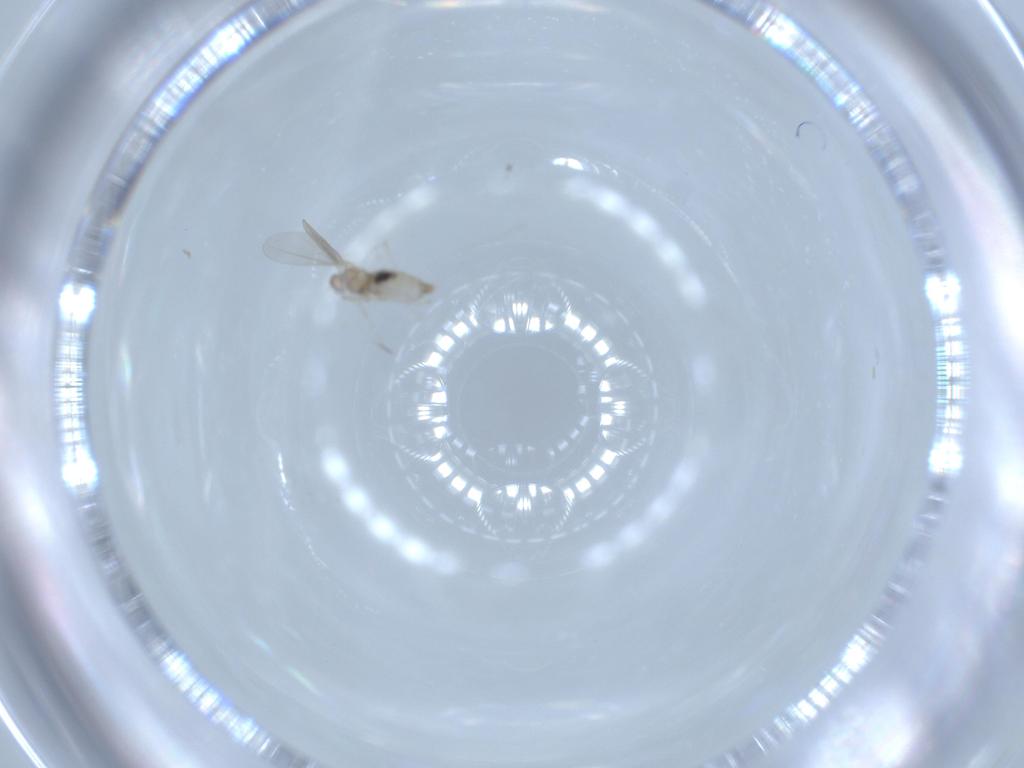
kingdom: Animalia
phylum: Arthropoda
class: Insecta
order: Diptera
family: Cecidomyiidae
